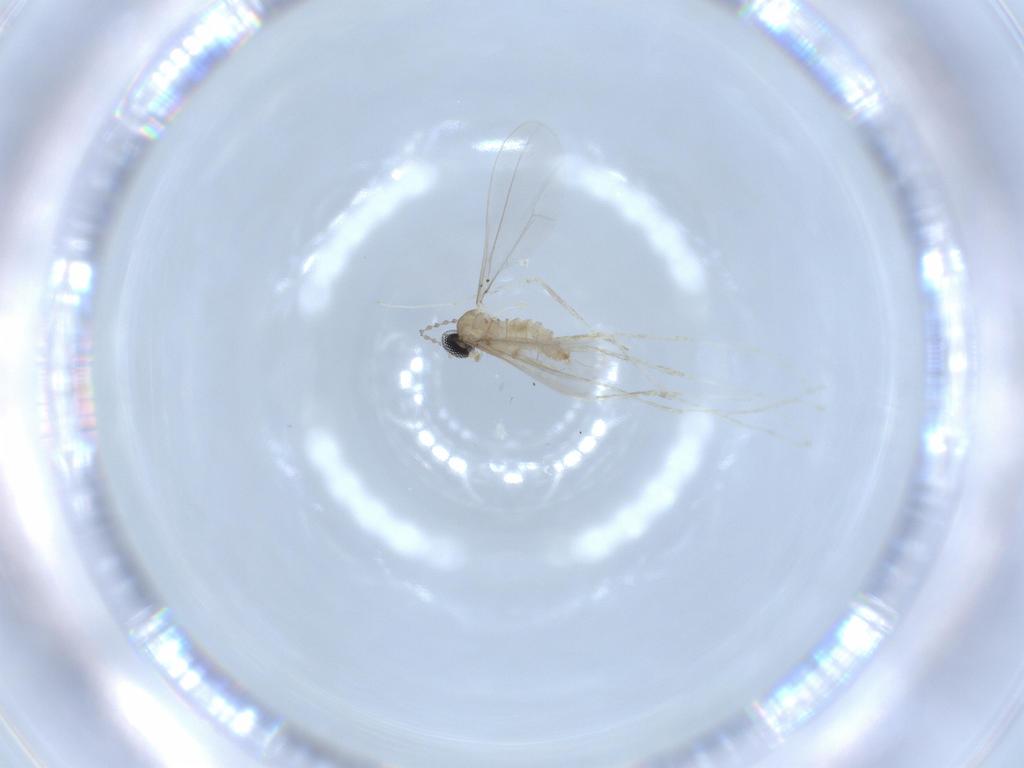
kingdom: Animalia
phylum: Arthropoda
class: Insecta
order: Diptera
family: Cecidomyiidae
